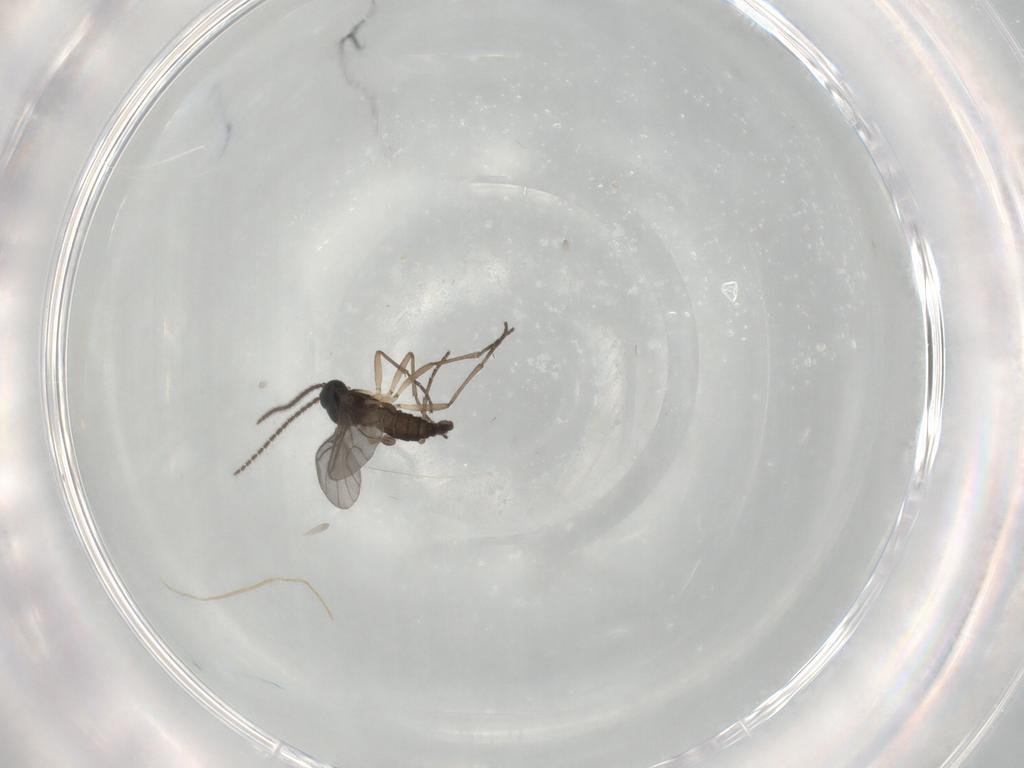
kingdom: Animalia
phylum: Arthropoda
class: Insecta
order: Diptera
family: Sciaridae
